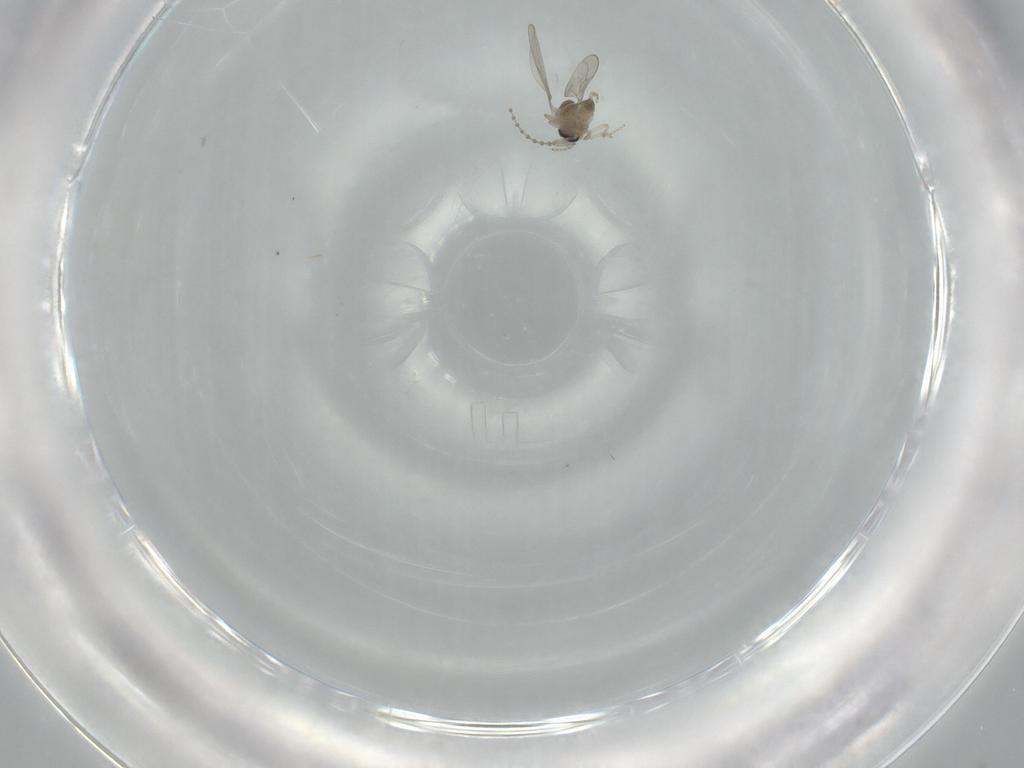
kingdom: Animalia
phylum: Arthropoda
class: Insecta
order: Diptera
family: Cecidomyiidae
